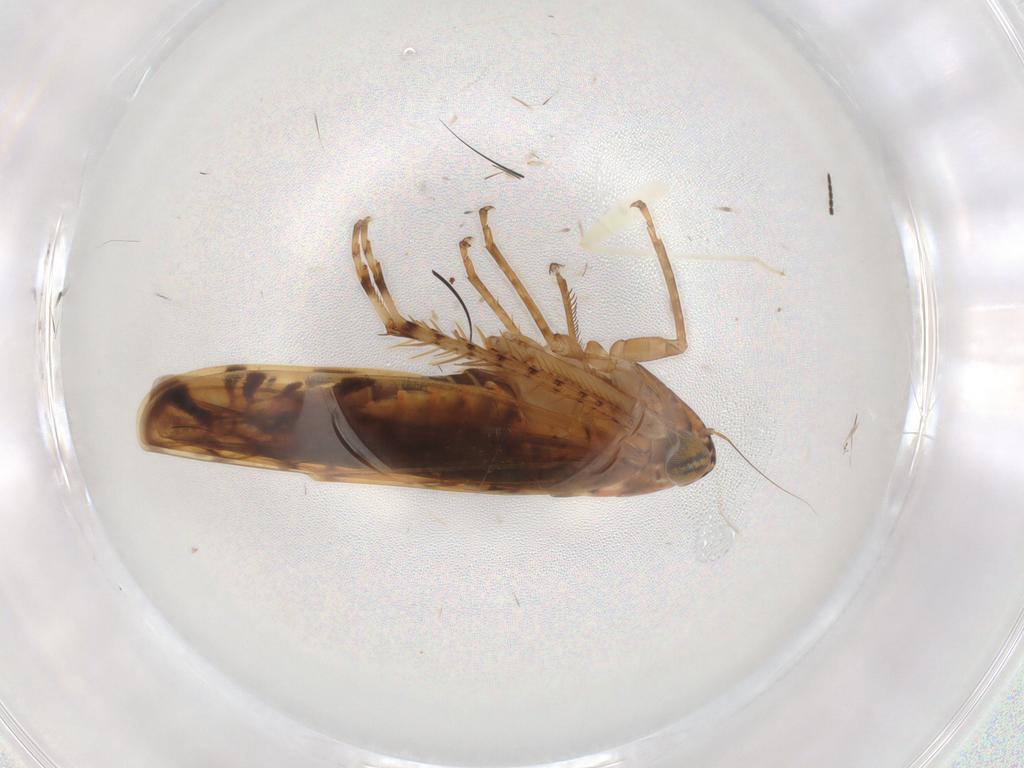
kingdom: Animalia
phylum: Arthropoda
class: Insecta
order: Hemiptera
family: Cicadellidae
